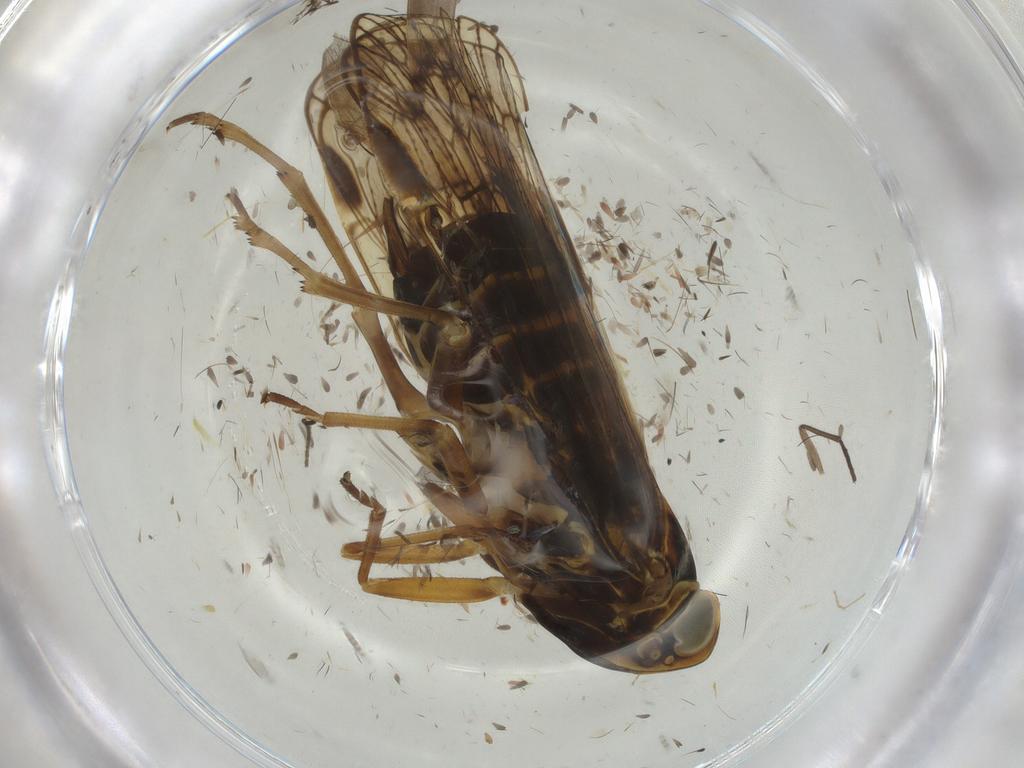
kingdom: Animalia
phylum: Arthropoda
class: Insecta
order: Hemiptera
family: Cixiidae
